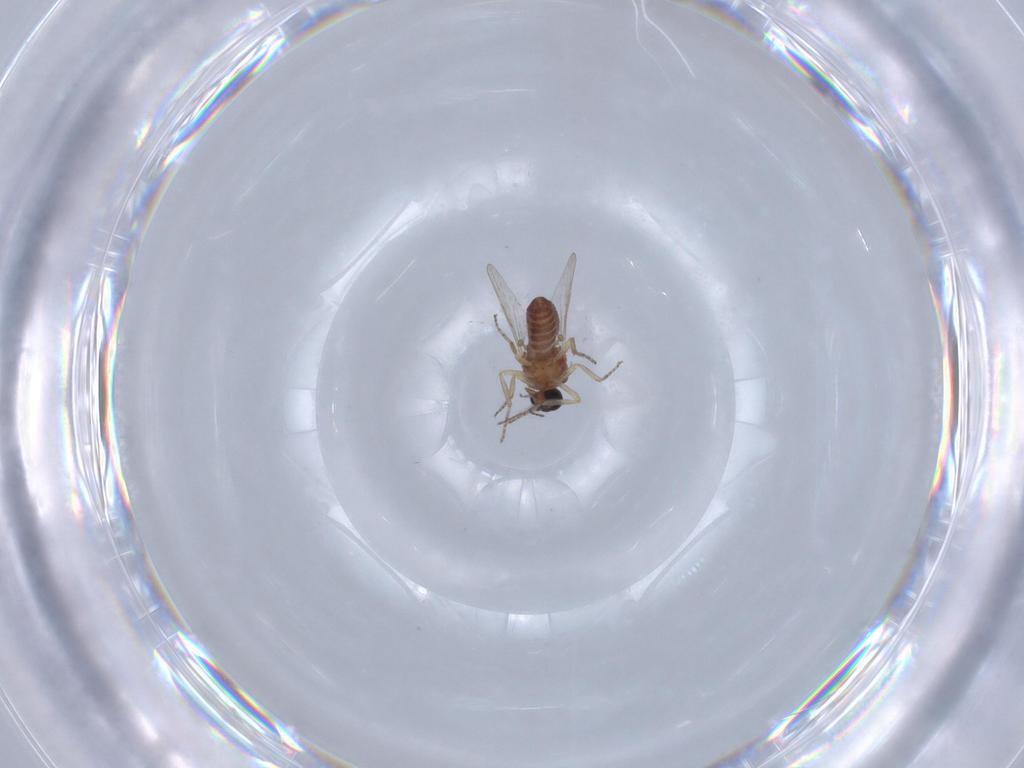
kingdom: Animalia
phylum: Arthropoda
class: Insecta
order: Diptera
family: Ceratopogonidae
